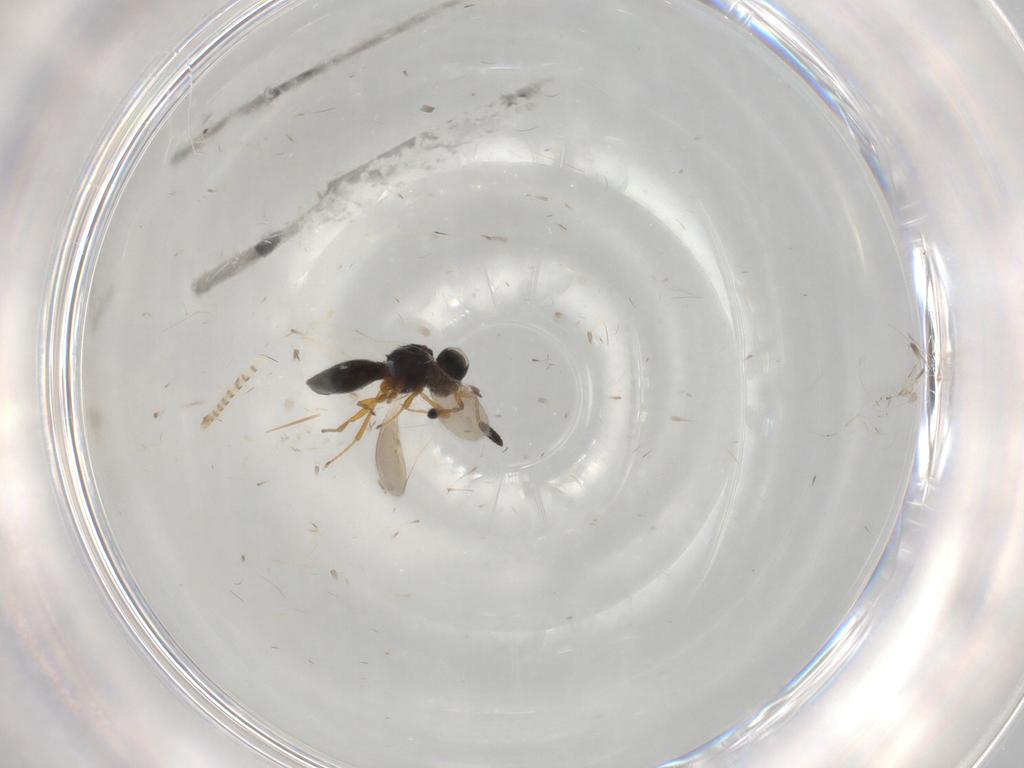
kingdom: Animalia
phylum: Arthropoda
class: Insecta
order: Hymenoptera
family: Scelionidae
